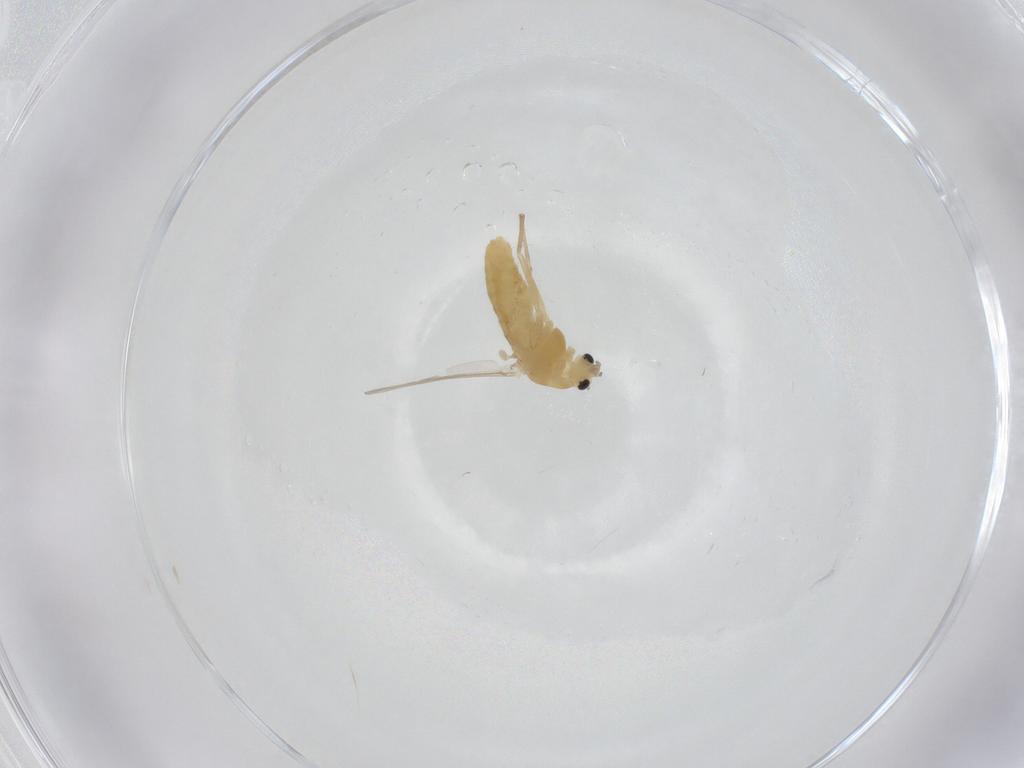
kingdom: Animalia
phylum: Arthropoda
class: Insecta
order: Diptera
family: Chironomidae
